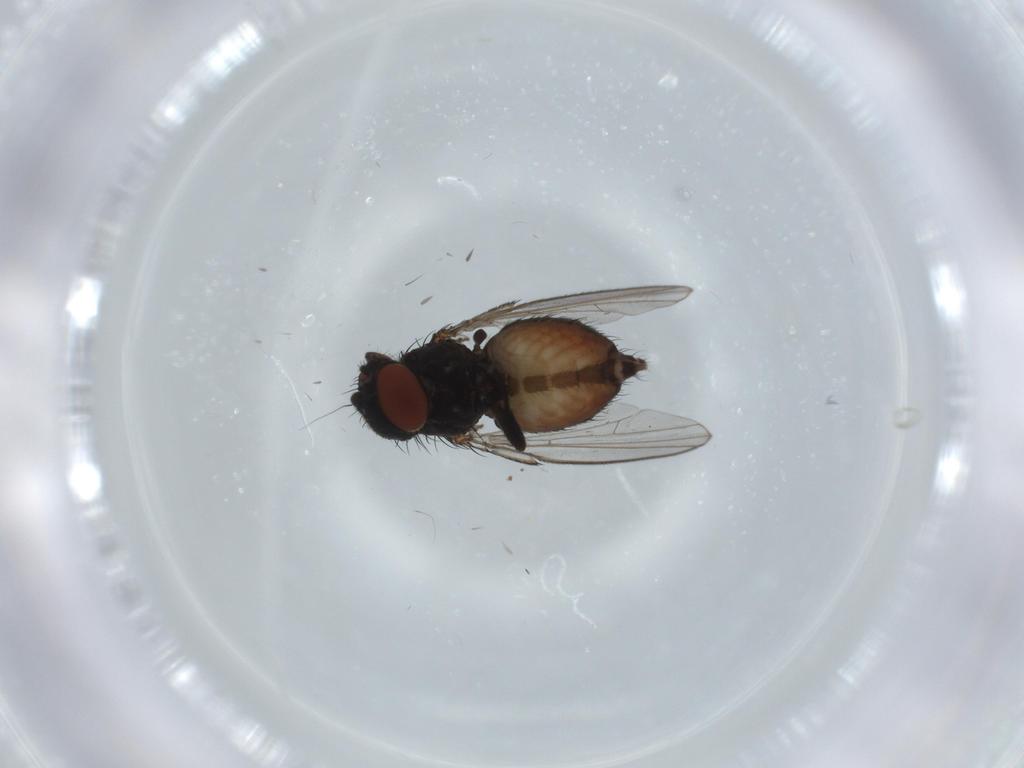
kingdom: Animalia
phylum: Arthropoda
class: Insecta
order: Diptera
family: Milichiidae
